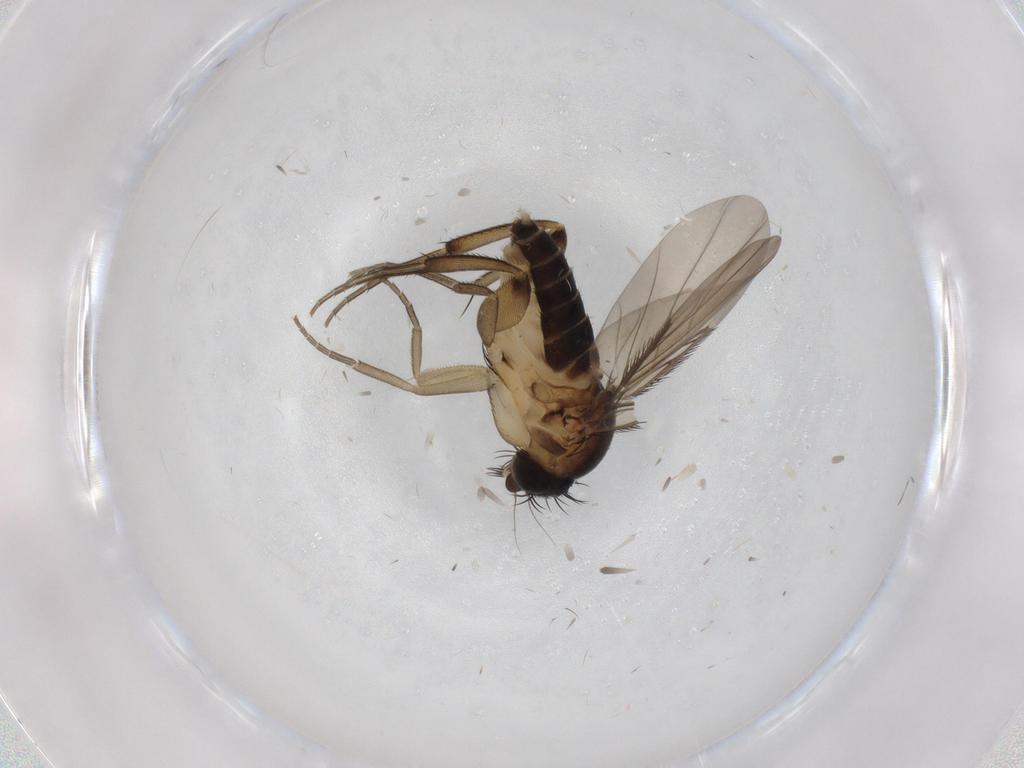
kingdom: Animalia
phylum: Arthropoda
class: Insecta
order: Diptera
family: Phoridae
